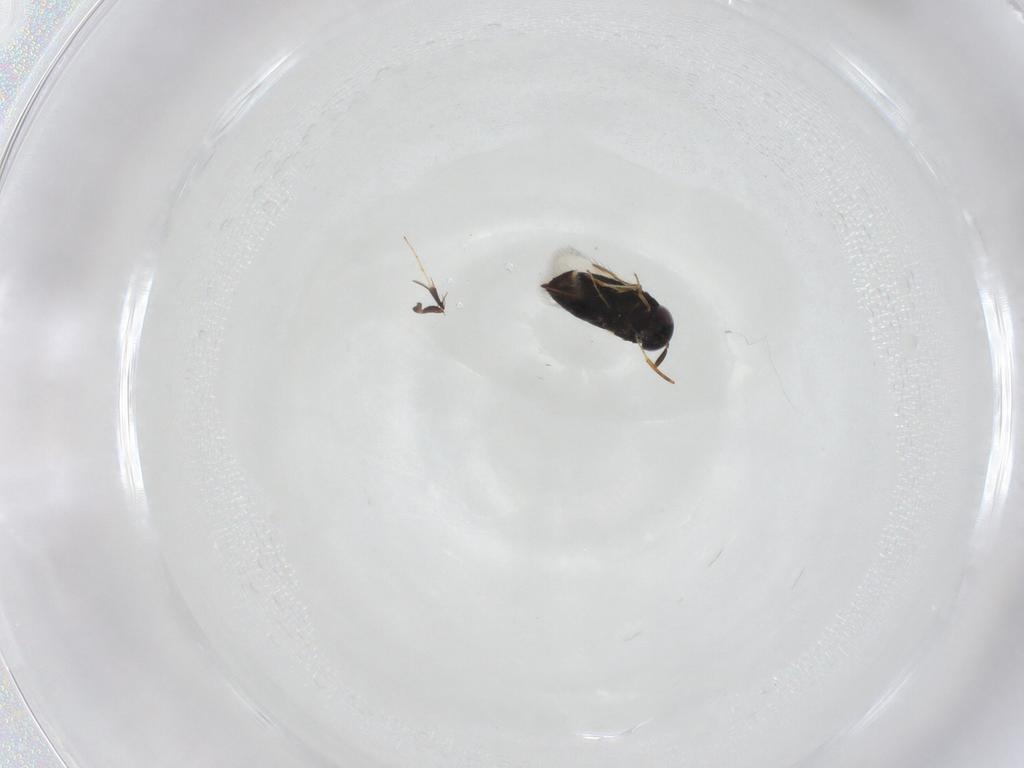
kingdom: Animalia
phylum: Arthropoda
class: Insecta
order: Hymenoptera
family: Signiphoridae
